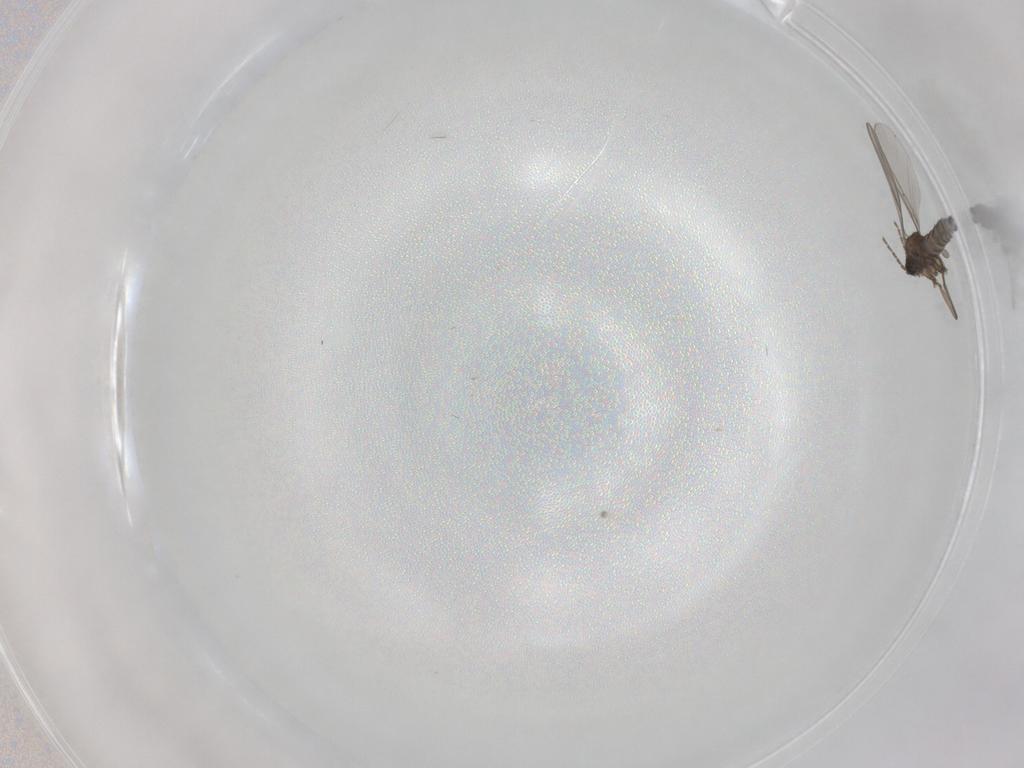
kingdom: Animalia
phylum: Arthropoda
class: Insecta
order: Diptera
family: Sciaridae
